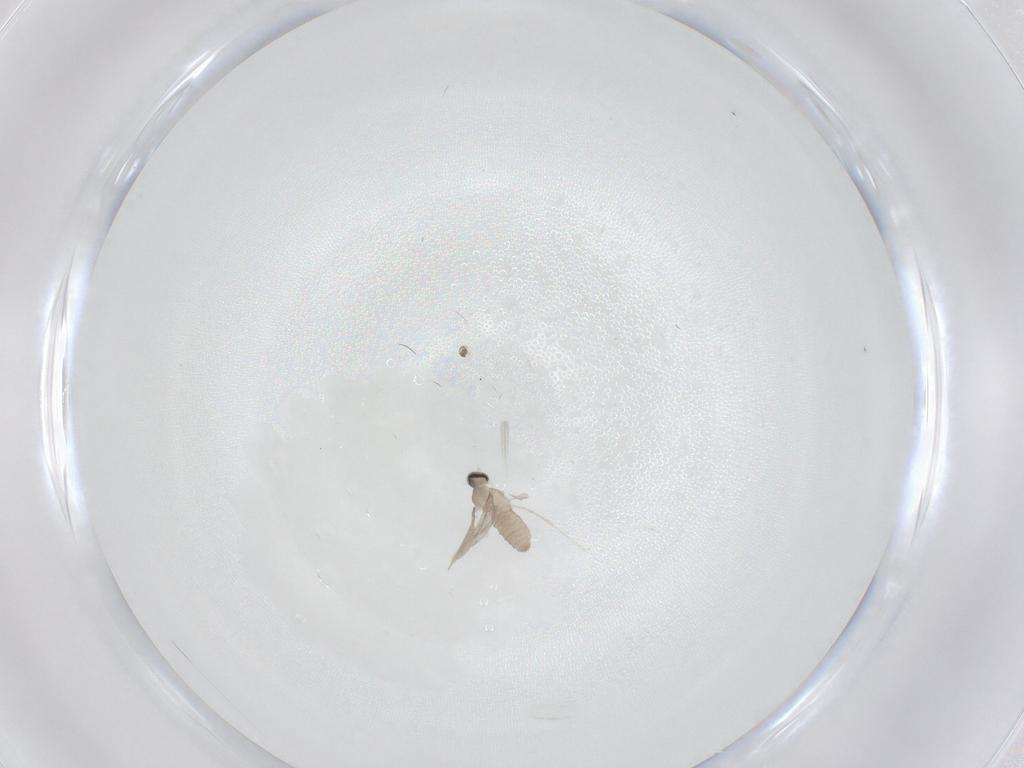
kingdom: Animalia
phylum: Arthropoda
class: Insecta
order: Diptera
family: Cecidomyiidae
